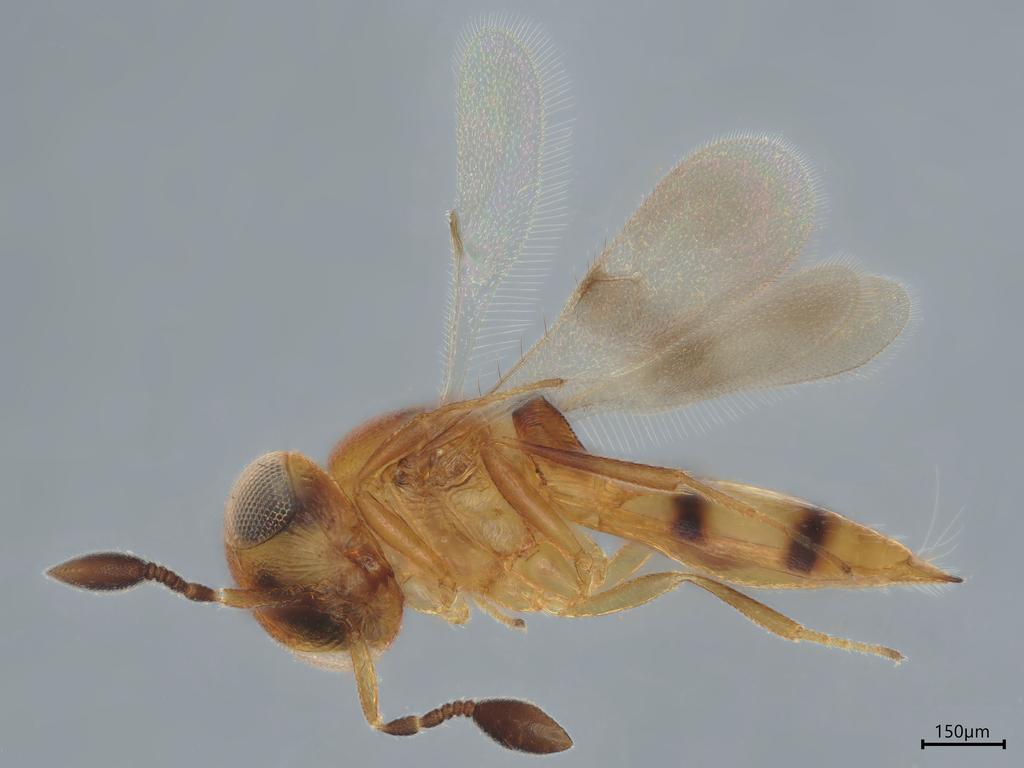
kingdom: Animalia
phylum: Arthropoda
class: Insecta
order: Hymenoptera
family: Scelionidae
